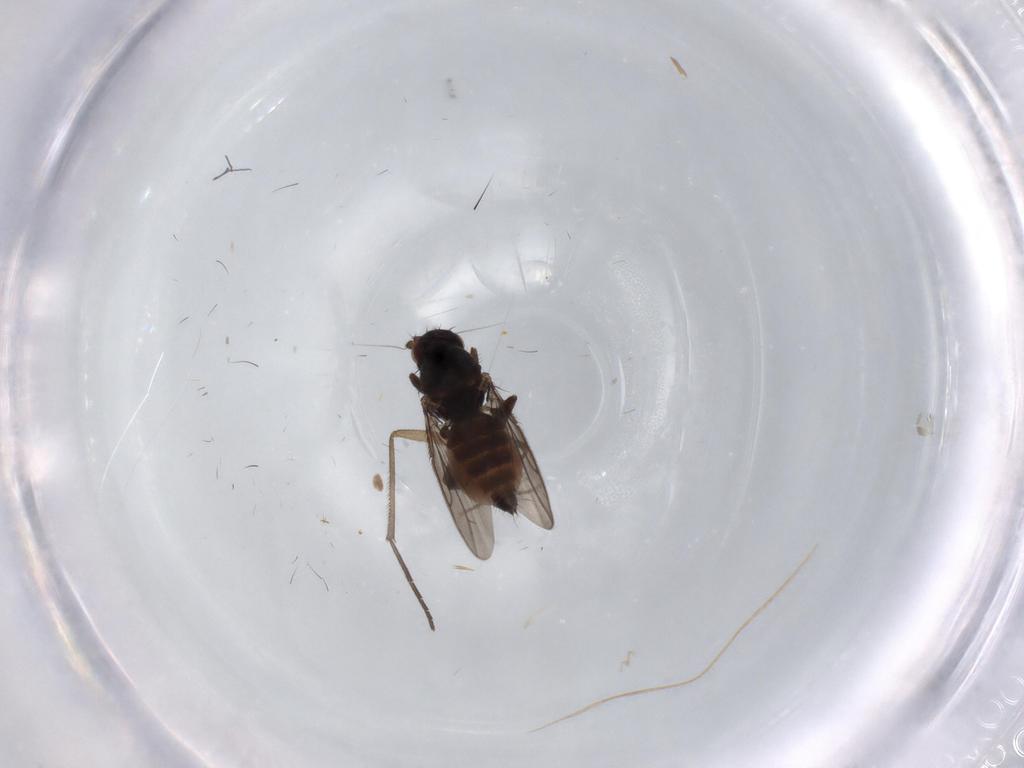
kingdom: Animalia
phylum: Arthropoda
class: Insecta
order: Diptera
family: Sphaeroceridae
